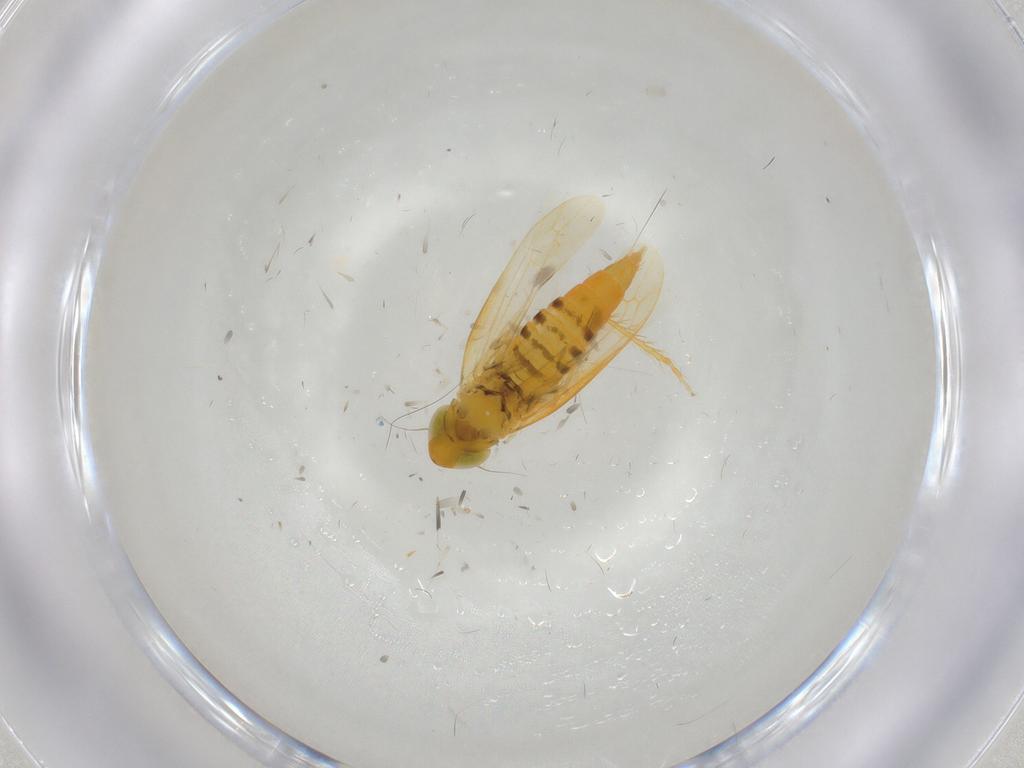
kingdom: Animalia
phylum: Arthropoda
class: Insecta
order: Hemiptera
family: Cicadellidae
